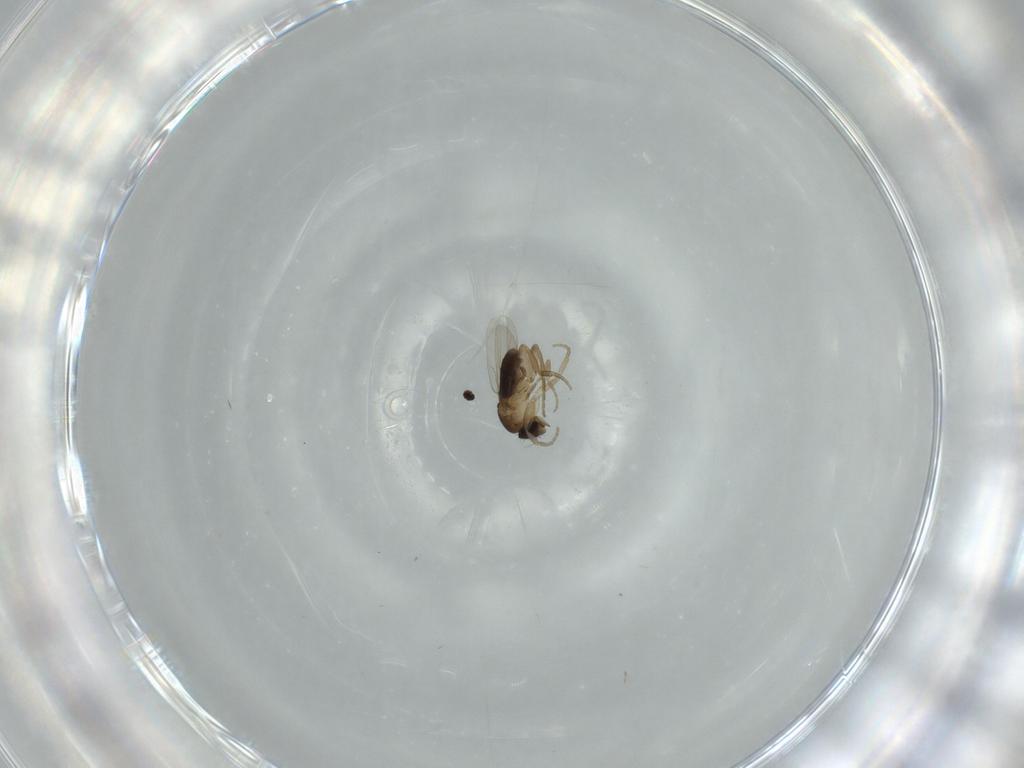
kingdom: Animalia
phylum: Arthropoda
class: Insecta
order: Diptera
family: Phoridae
